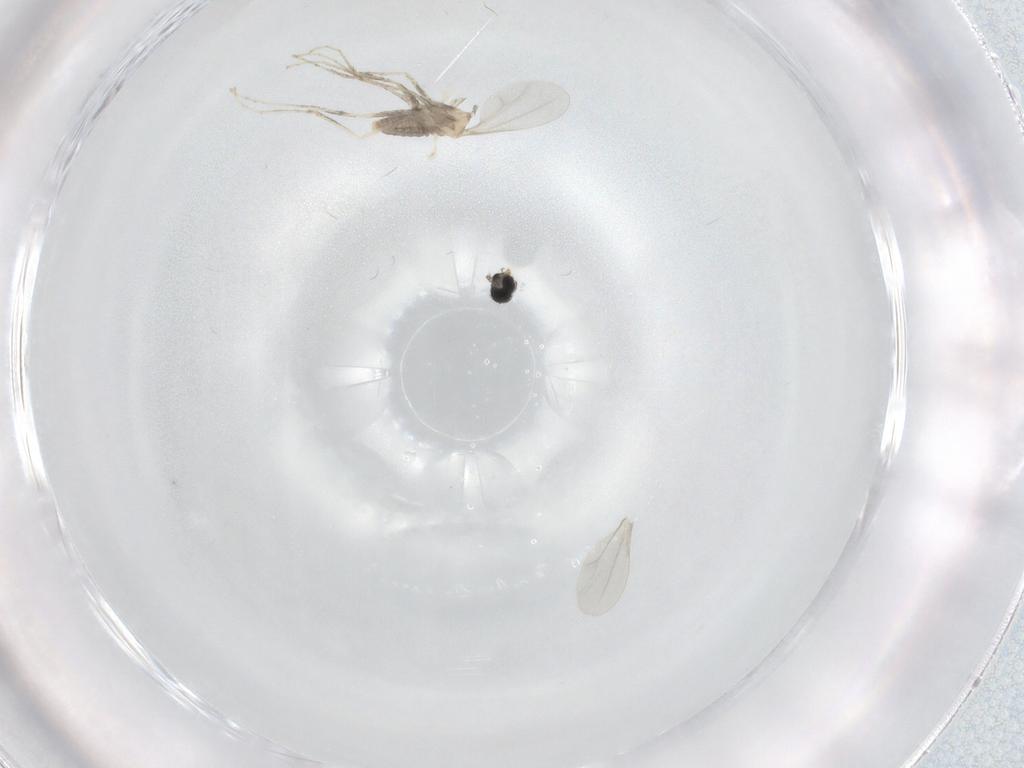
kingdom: Animalia
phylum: Arthropoda
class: Insecta
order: Diptera
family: Cecidomyiidae
